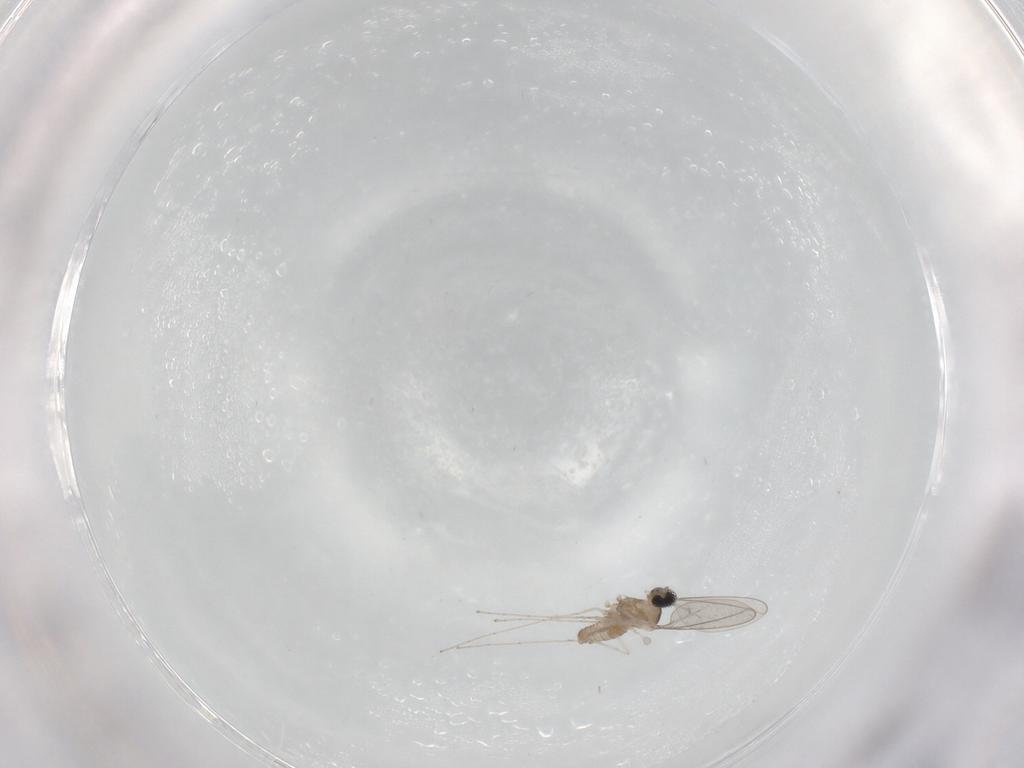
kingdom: Animalia
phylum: Arthropoda
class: Insecta
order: Diptera
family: Cecidomyiidae
